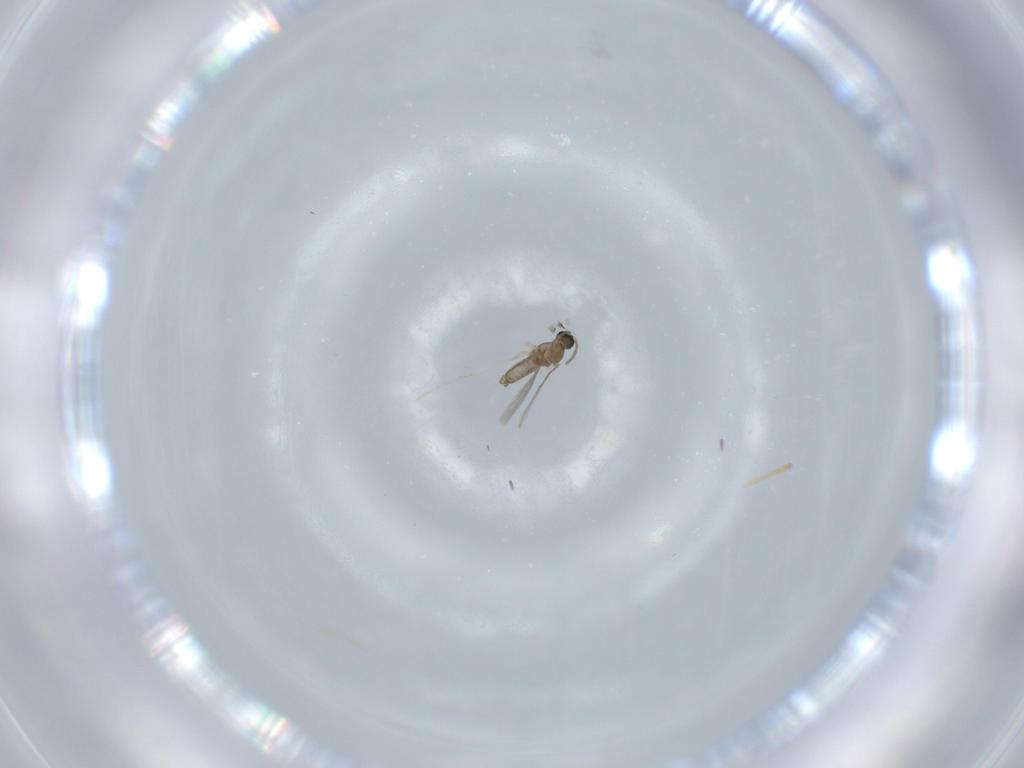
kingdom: Animalia
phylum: Arthropoda
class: Insecta
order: Diptera
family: Cecidomyiidae
